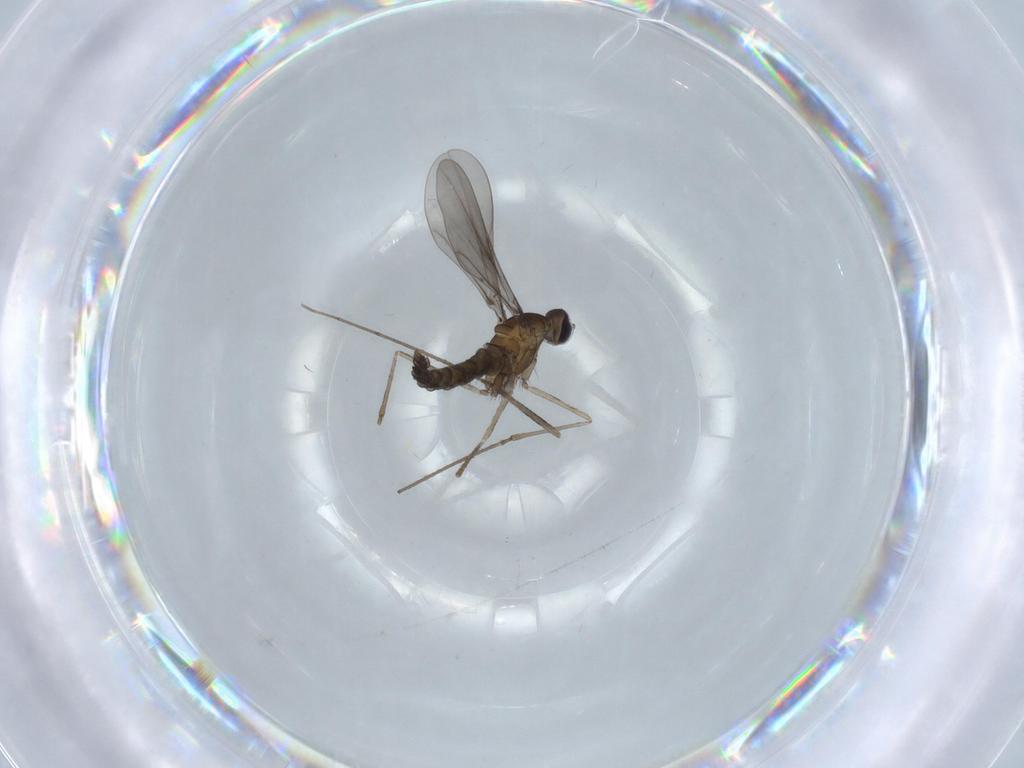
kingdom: Animalia
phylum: Arthropoda
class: Insecta
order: Diptera
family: Cecidomyiidae
